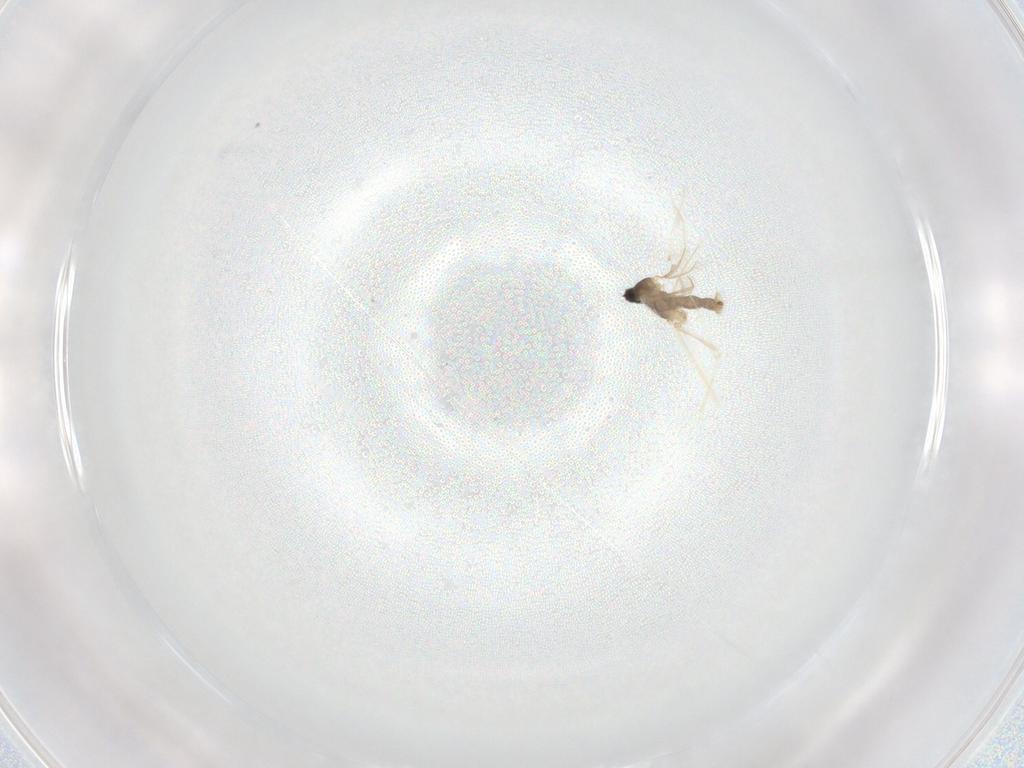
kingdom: Animalia
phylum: Arthropoda
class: Insecta
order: Diptera
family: Cecidomyiidae
